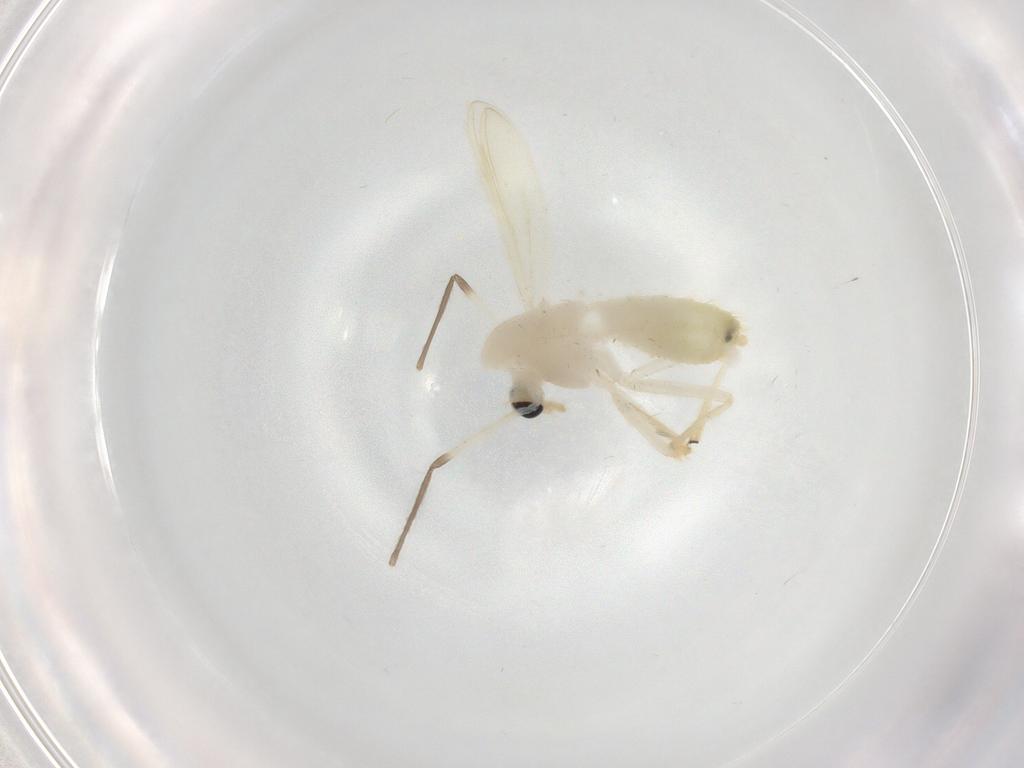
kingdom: Animalia
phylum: Arthropoda
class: Insecta
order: Diptera
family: Chironomidae
